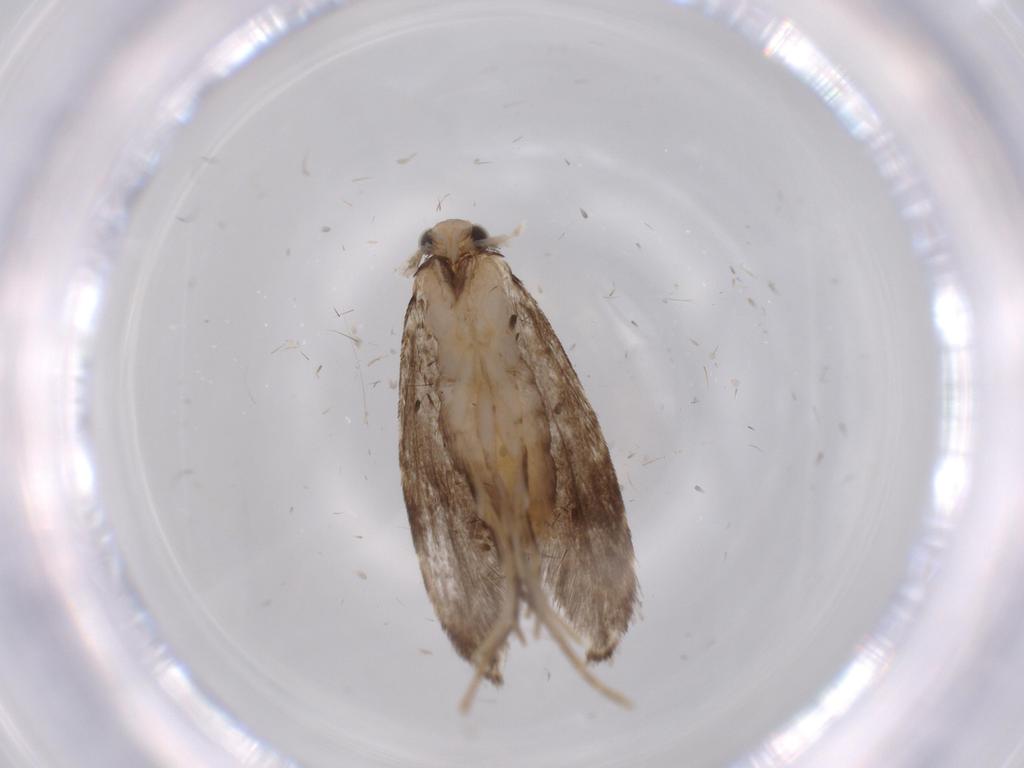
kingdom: Animalia
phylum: Arthropoda
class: Insecta
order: Lepidoptera
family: Tineidae
